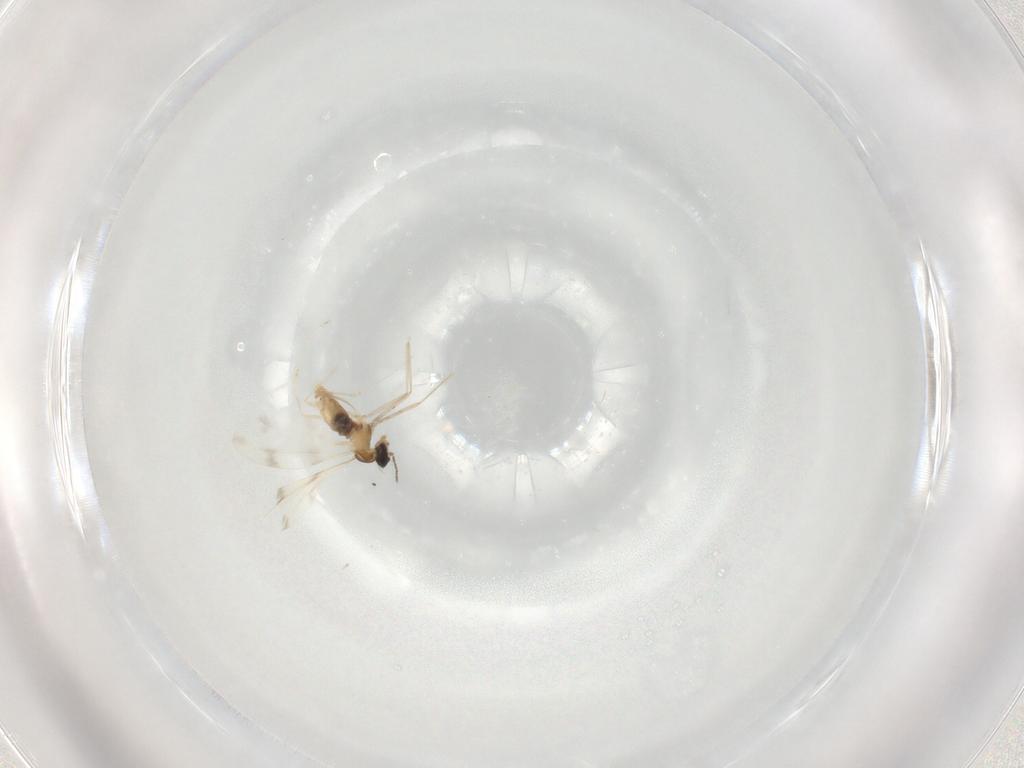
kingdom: Animalia
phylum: Arthropoda
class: Insecta
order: Diptera
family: Cecidomyiidae
